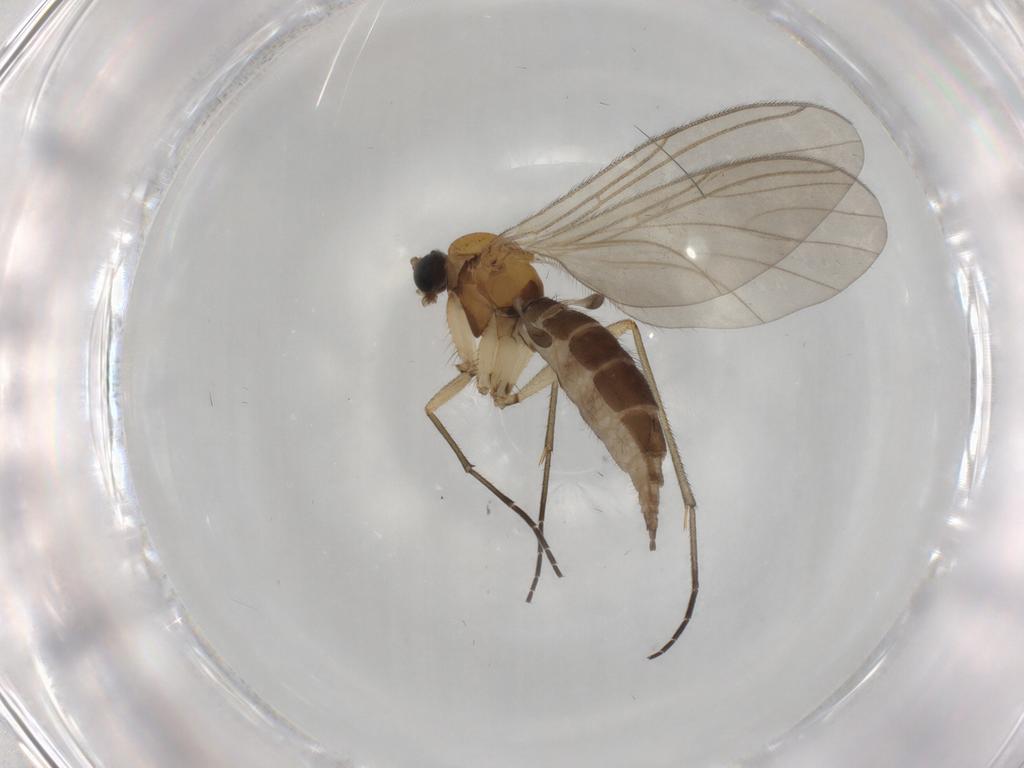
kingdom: Animalia
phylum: Arthropoda
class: Insecta
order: Diptera
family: Sciaridae
